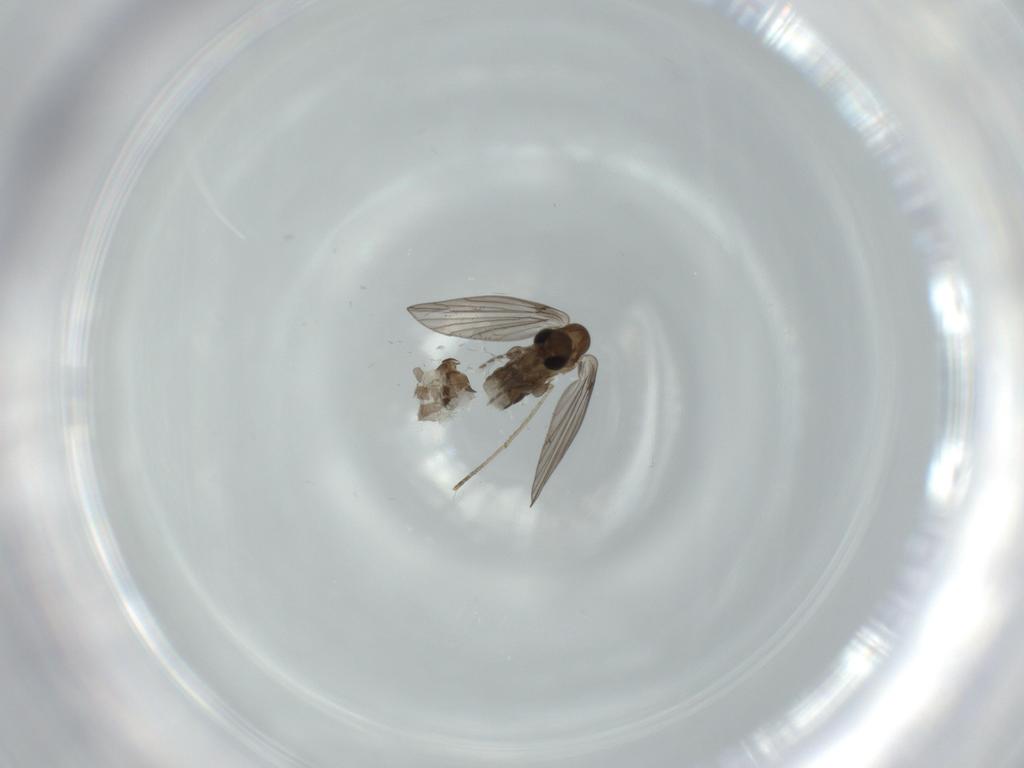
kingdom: Animalia
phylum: Arthropoda
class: Insecta
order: Diptera
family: Psychodidae
